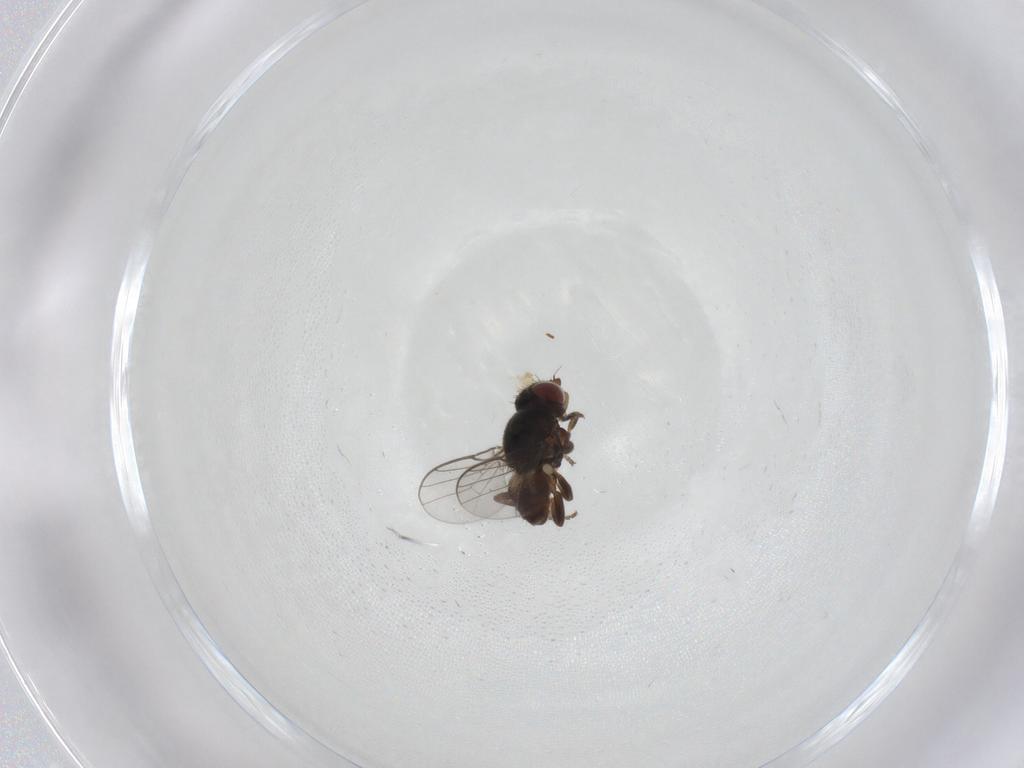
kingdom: Animalia
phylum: Arthropoda
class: Insecta
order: Diptera
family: Chloropidae
